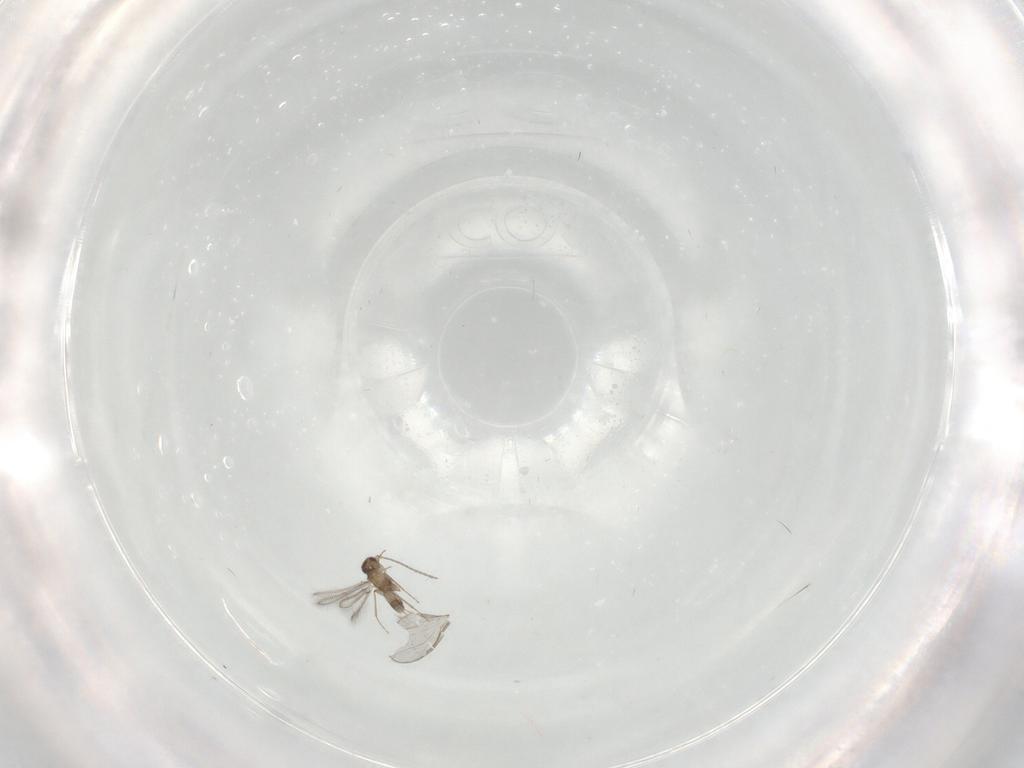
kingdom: Animalia
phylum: Arthropoda
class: Insecta
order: Hymenoptera
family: Mymaridae
